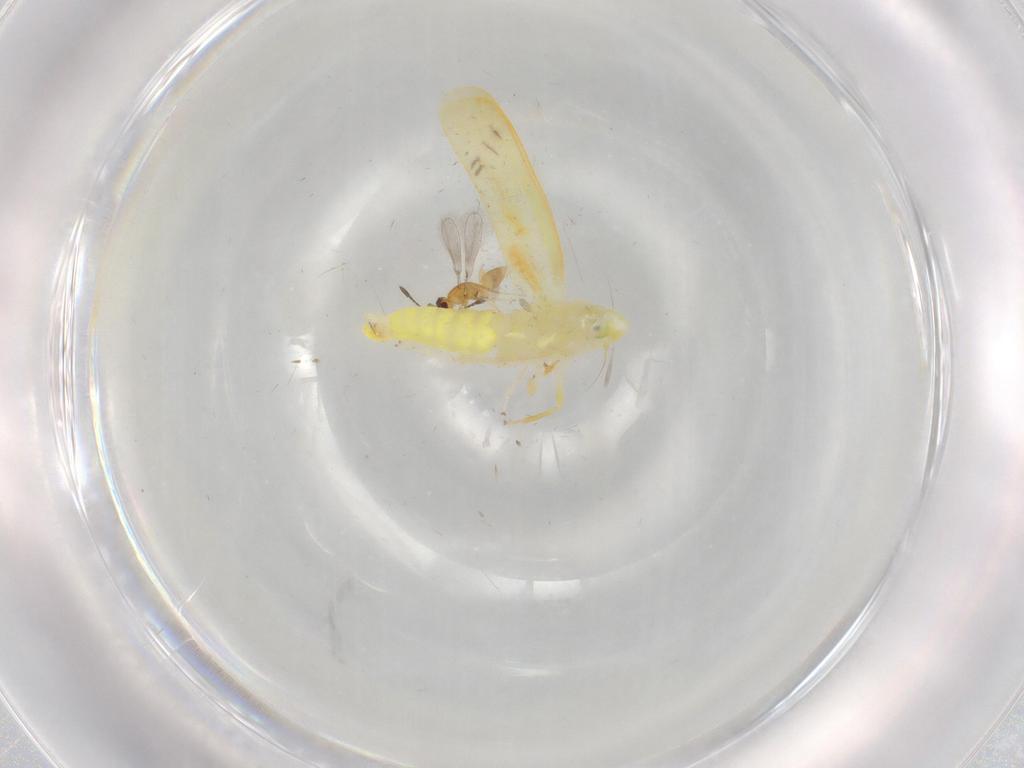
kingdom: Animalia
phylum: Arthropoda
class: Insecta
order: Hemiptera
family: Cicadellidae
